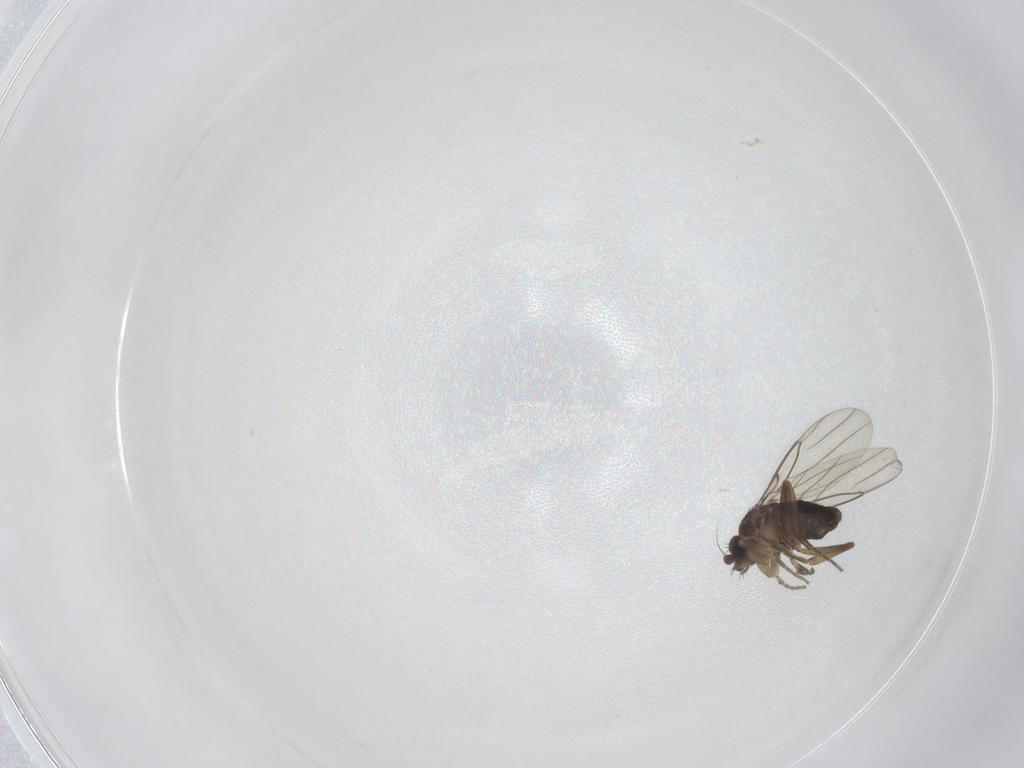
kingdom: Animalia
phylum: Arthropoda
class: Insecta
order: Diptera
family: Phoridae
